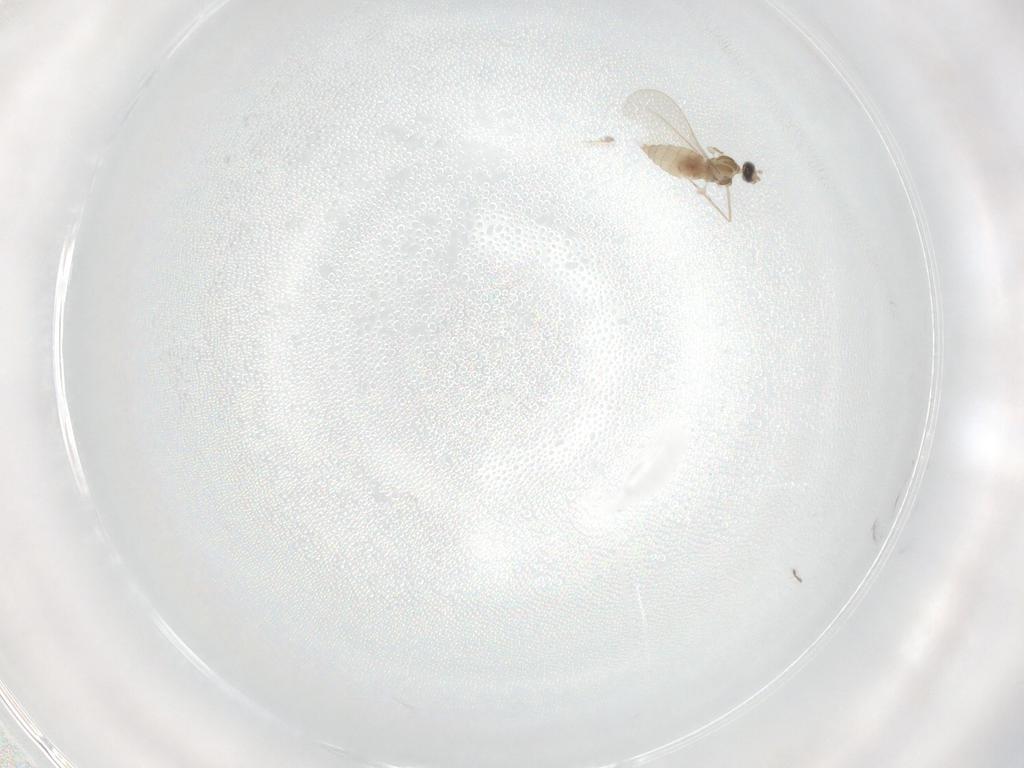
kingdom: Animalia
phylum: Arthropoda
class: Insecta
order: Diptera
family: Cecidomyiidae
